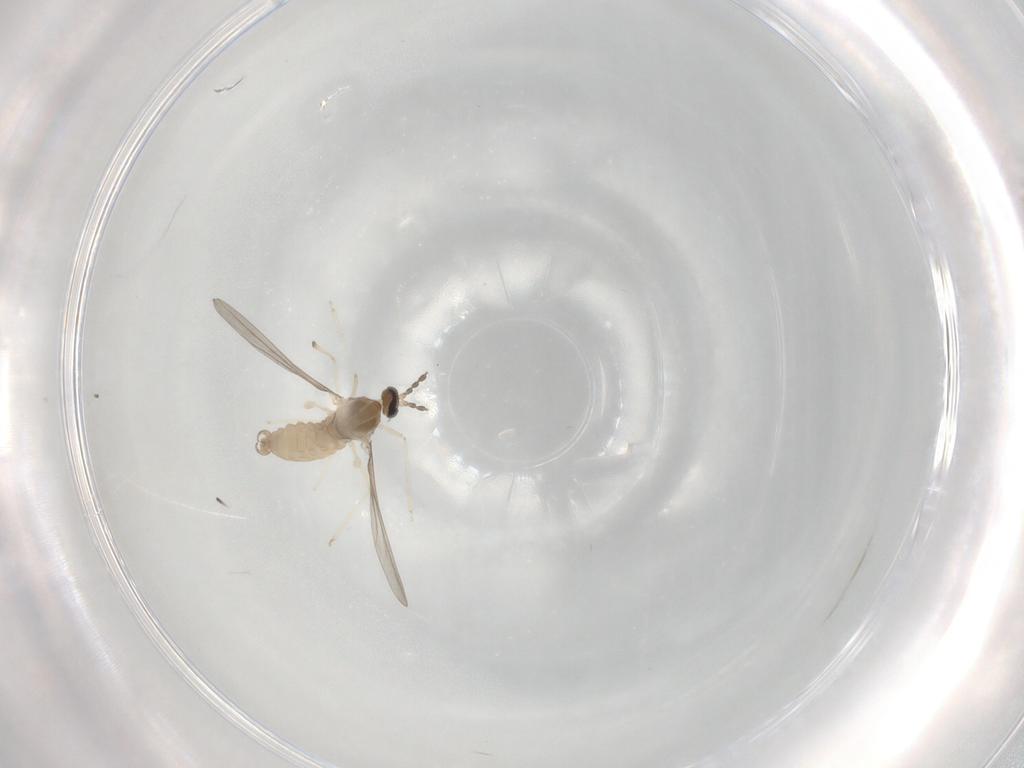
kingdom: Animalia
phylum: Arthropoda
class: Insecta
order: Diptera
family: Cecidomyiidae
